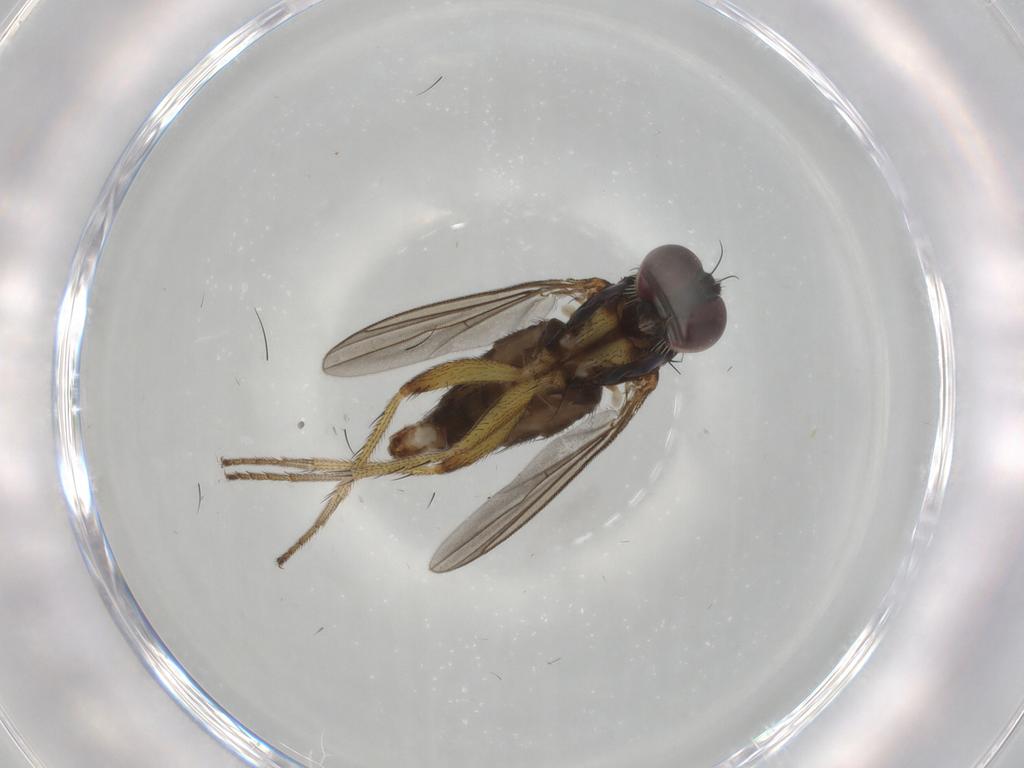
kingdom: Animalia
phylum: Arthropoda
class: Insecta
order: Diptera
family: Dolichopodidae
